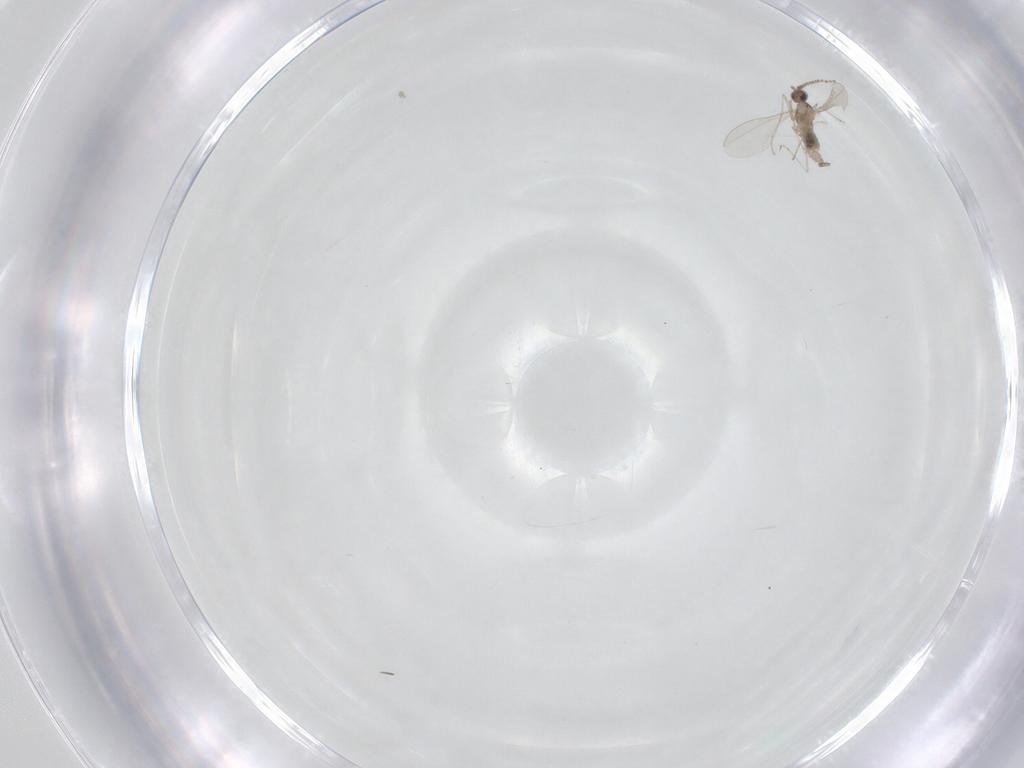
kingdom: Animalia
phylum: Arthropoda
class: Insecta
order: Diptera
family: Cecidomyiidae
